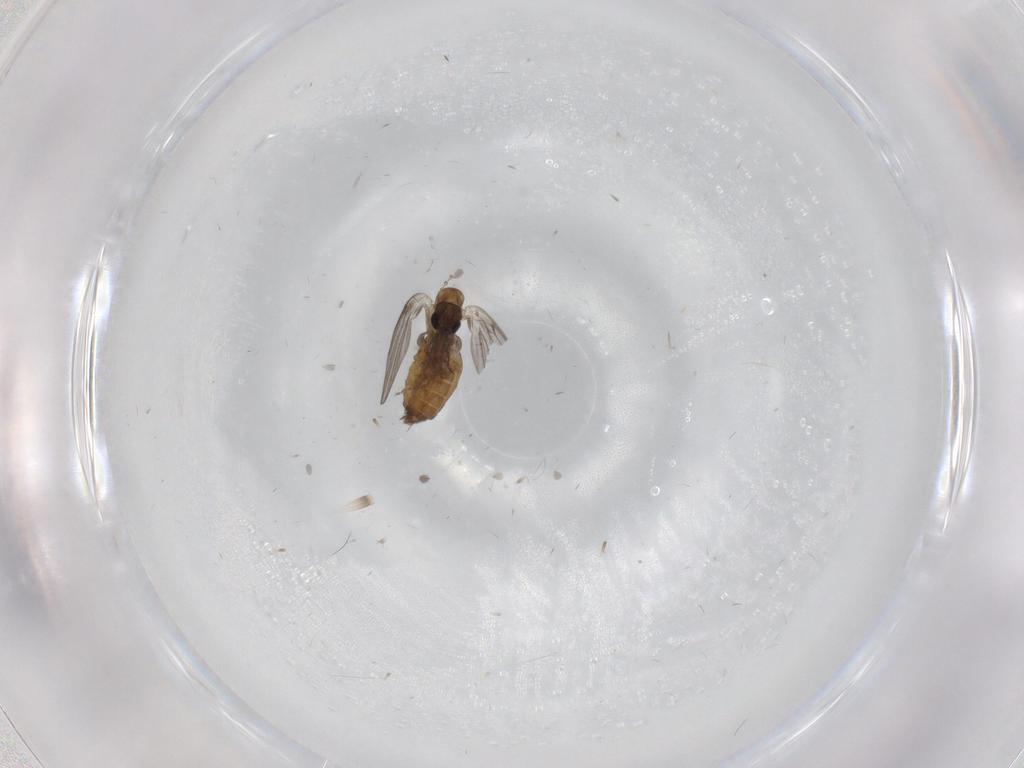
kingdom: Animalia
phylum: Arthropoda
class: Insecta
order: Diptera
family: Psychodidae
